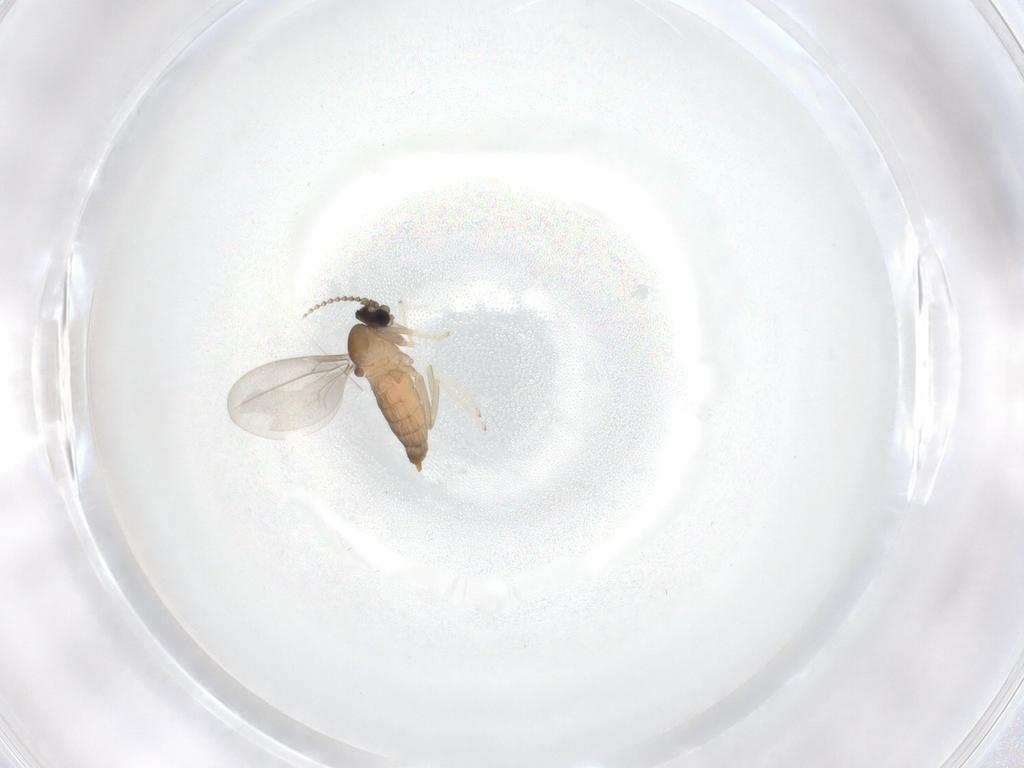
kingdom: Animalia
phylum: Arthropoda
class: Insecta
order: Diptera
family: Cecidomyiidae
